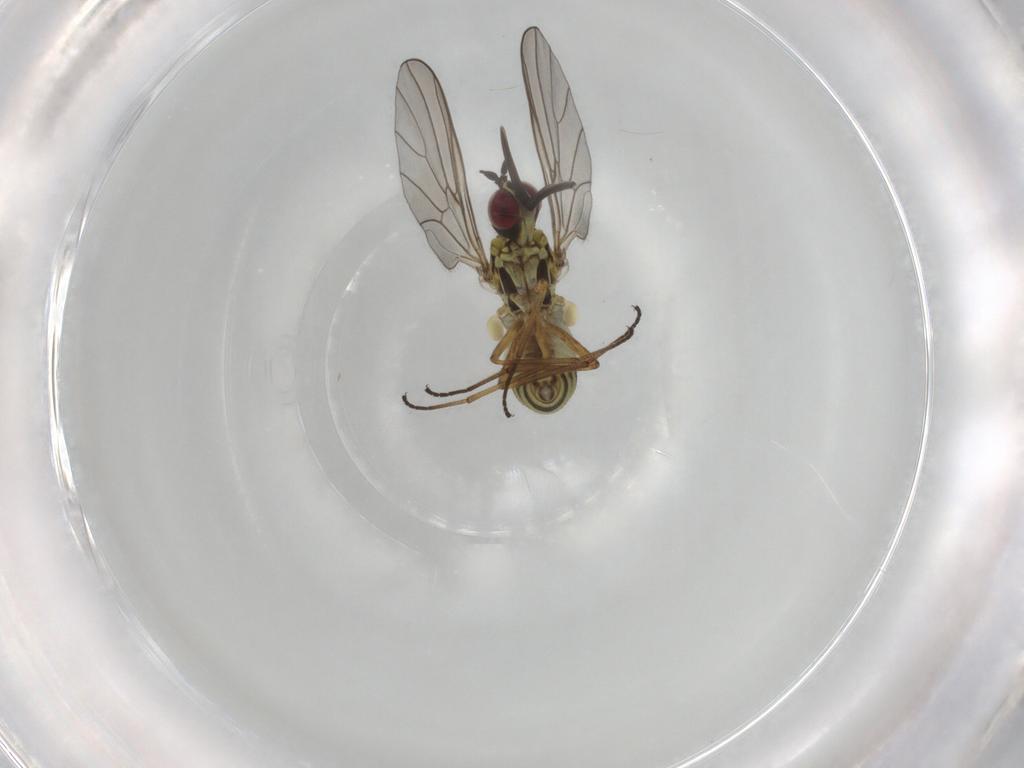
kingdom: Animalia
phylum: Arthropoda
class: Insecta
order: Diptera
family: Mythicomyiidae
